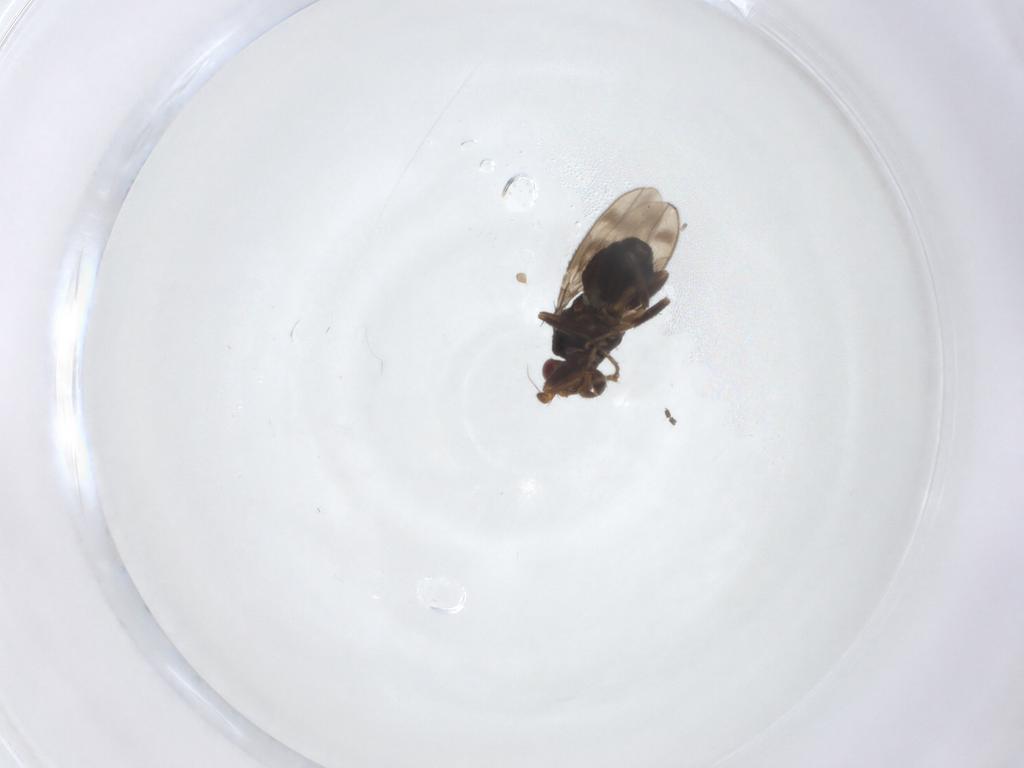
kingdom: Animalia
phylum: Arthropoda
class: Insecta
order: Diptera
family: Sphaeroceridae
